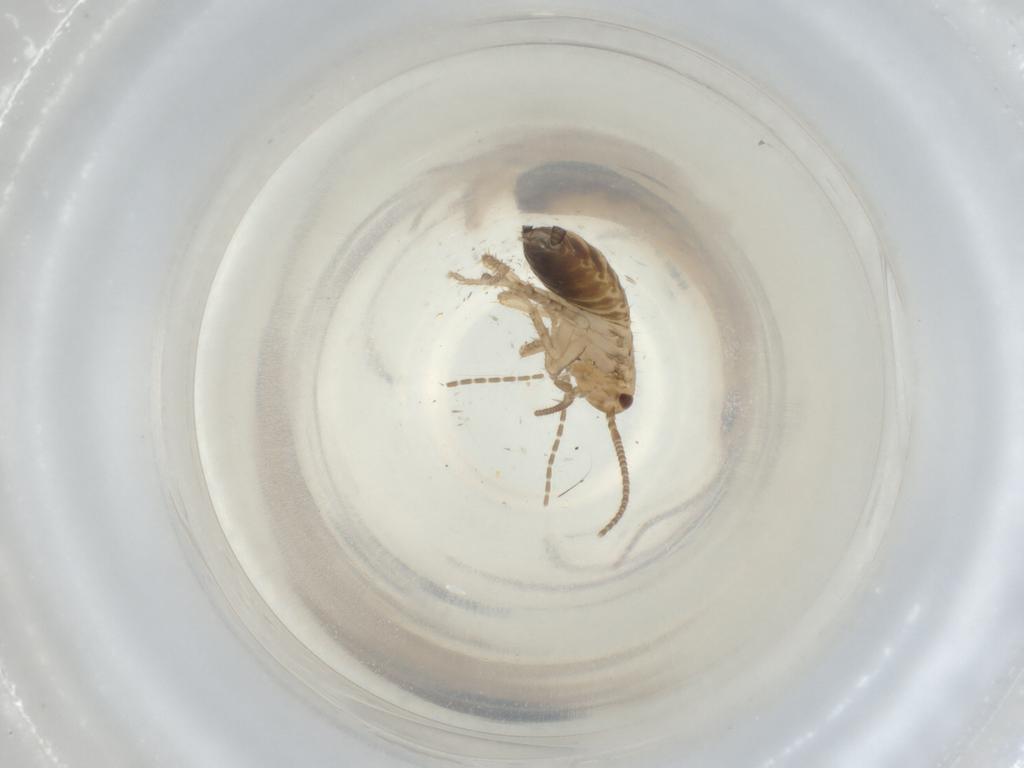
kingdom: Animalia
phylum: Arthropoda
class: Insecta
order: Blattodea
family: Ectobiidae
